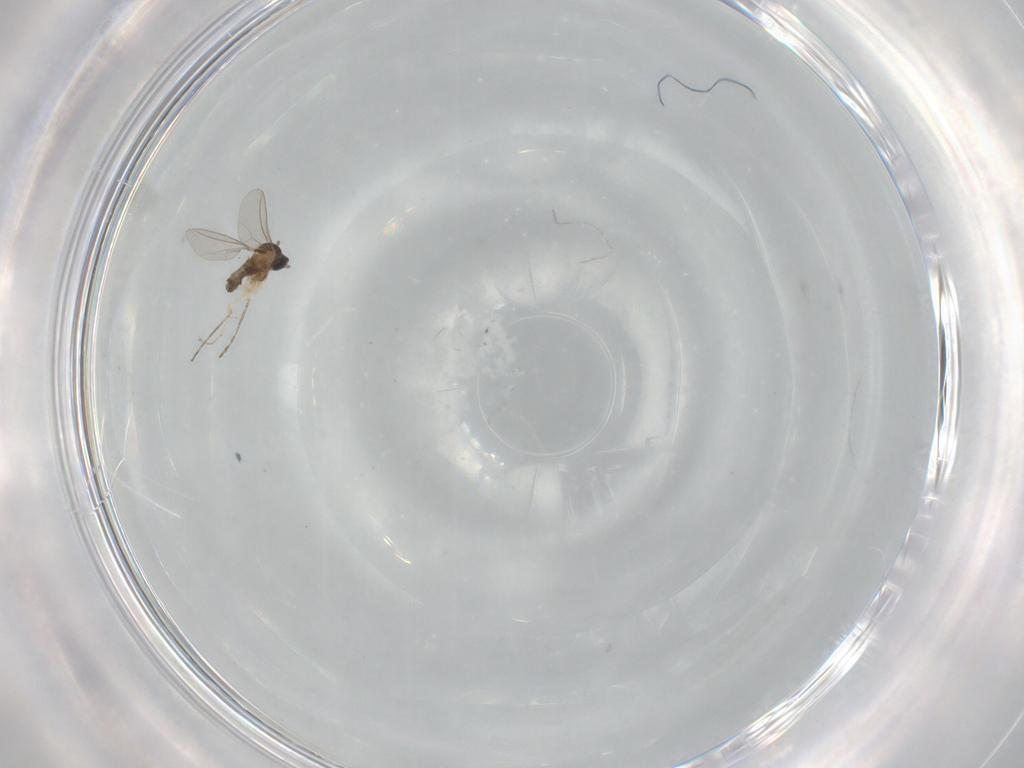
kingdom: Animalia
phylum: Arthropoda
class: Insecta
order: Diptera
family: Cecidomyiidae
